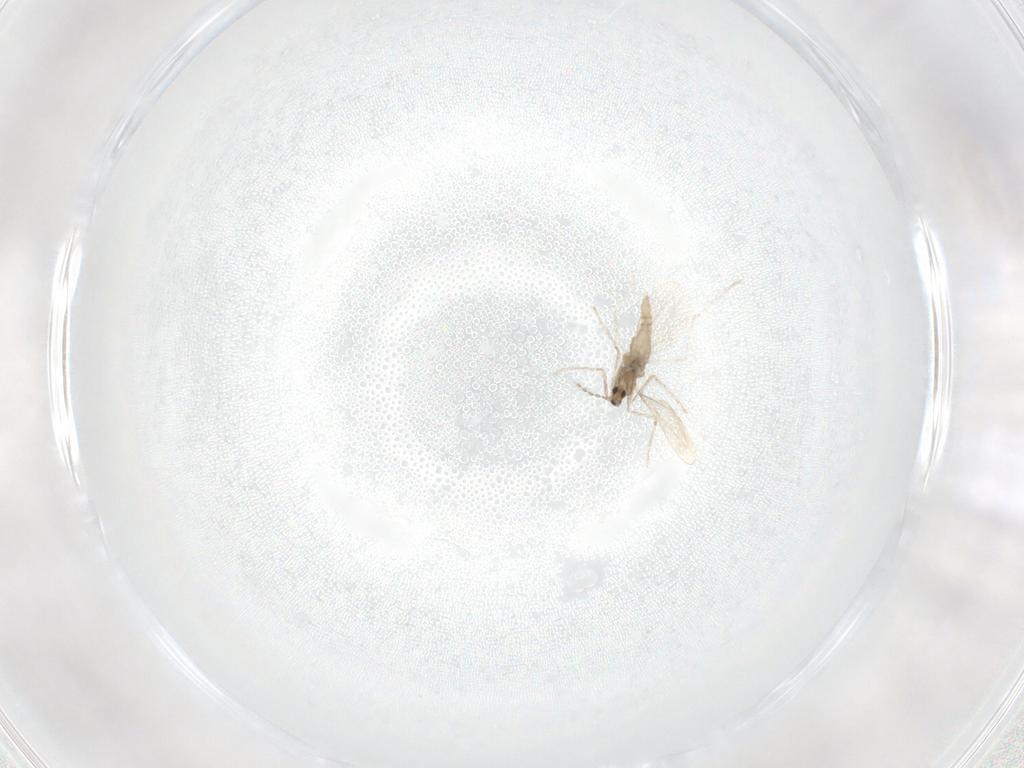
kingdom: Animalia
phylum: Arthropoda
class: Insecta
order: Diptera
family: Cecidomyiidae
